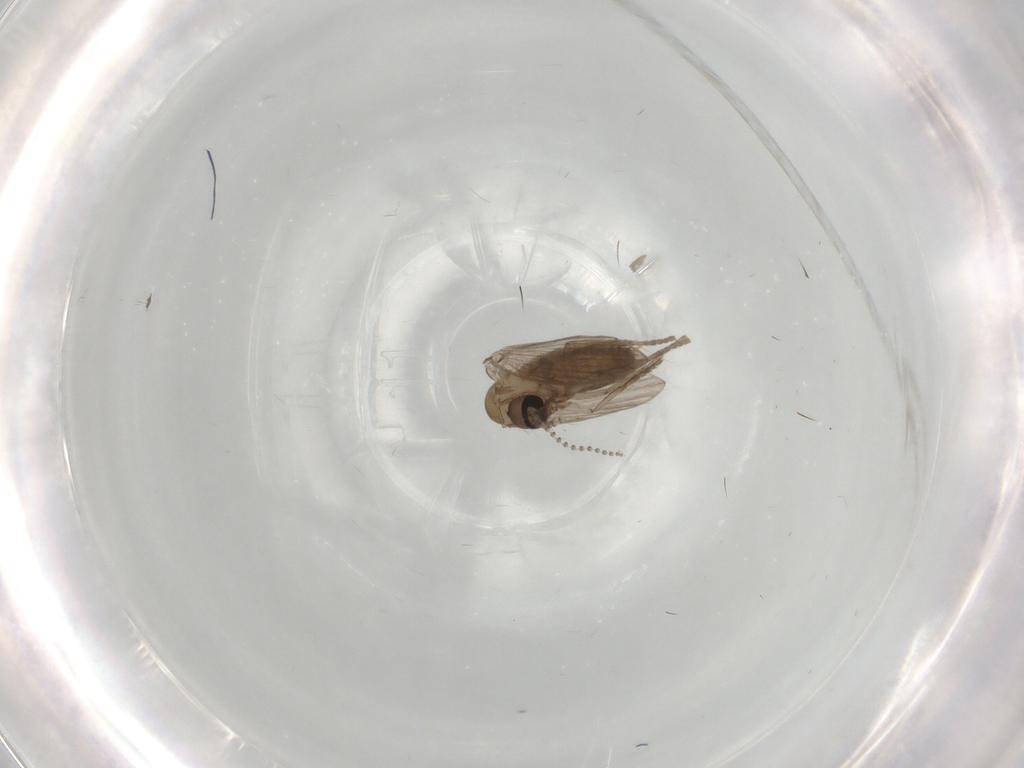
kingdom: Animalia
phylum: Arthropoda
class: Insecta
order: Diptera
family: Psychodidae
